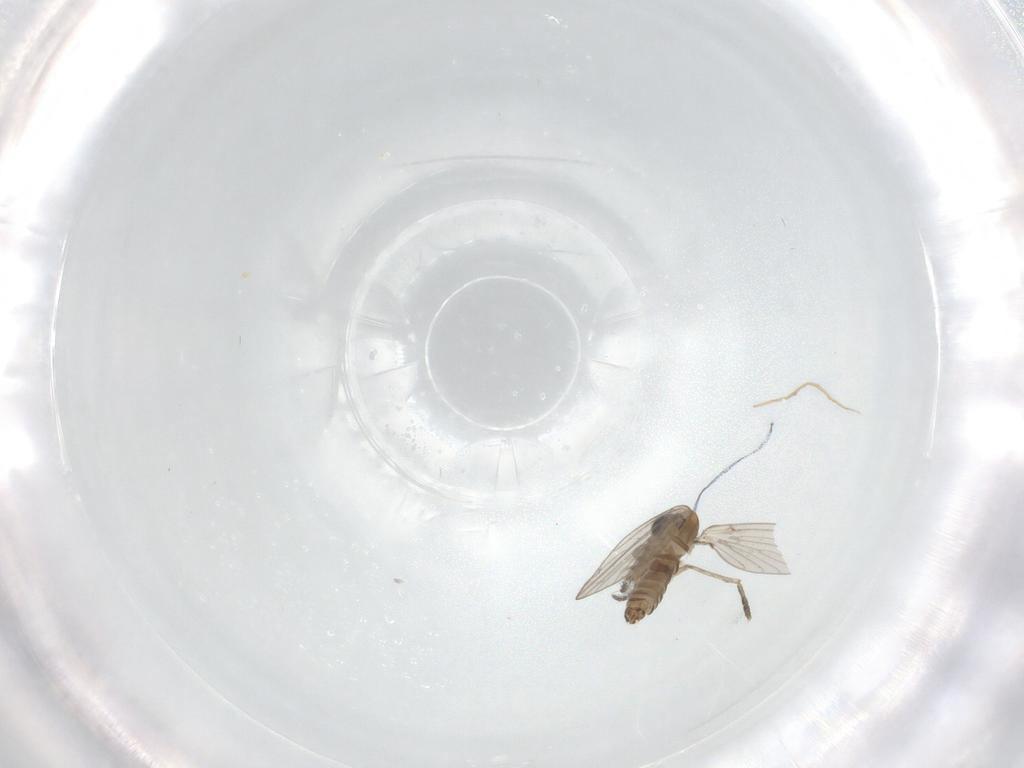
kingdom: Animalia
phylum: Arthropoda
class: Insecta
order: Diptera
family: Psychodidae
